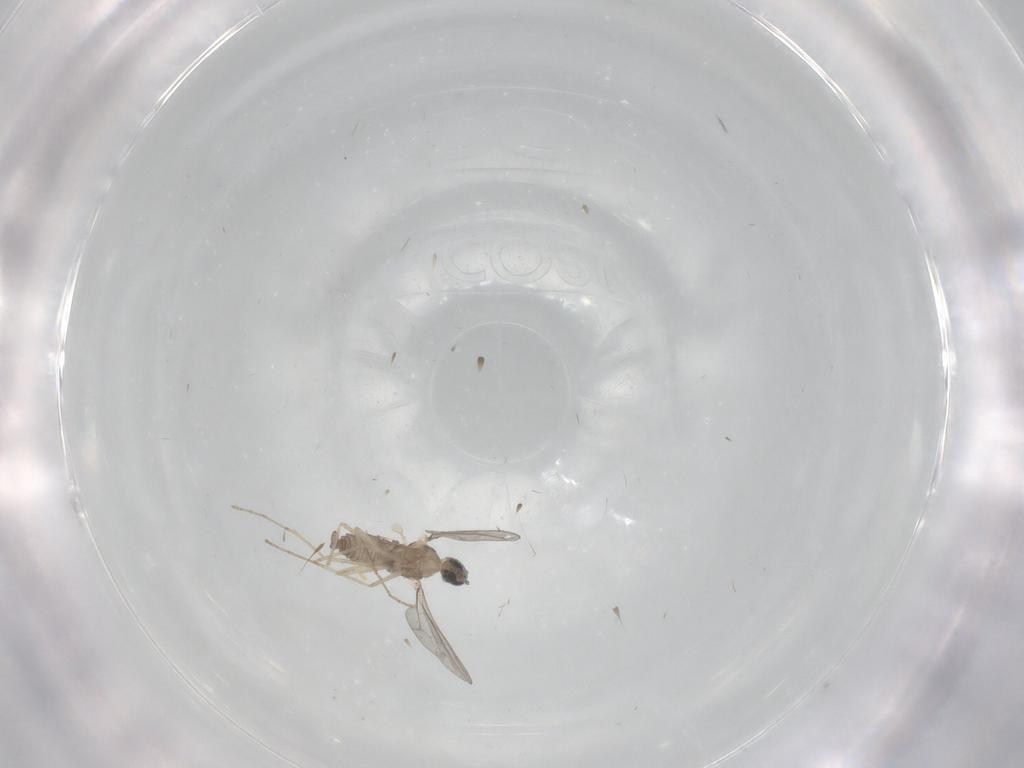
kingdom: Animalia
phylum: Arthropoda
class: Insecta
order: Diptera
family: Cecidomyiidae
